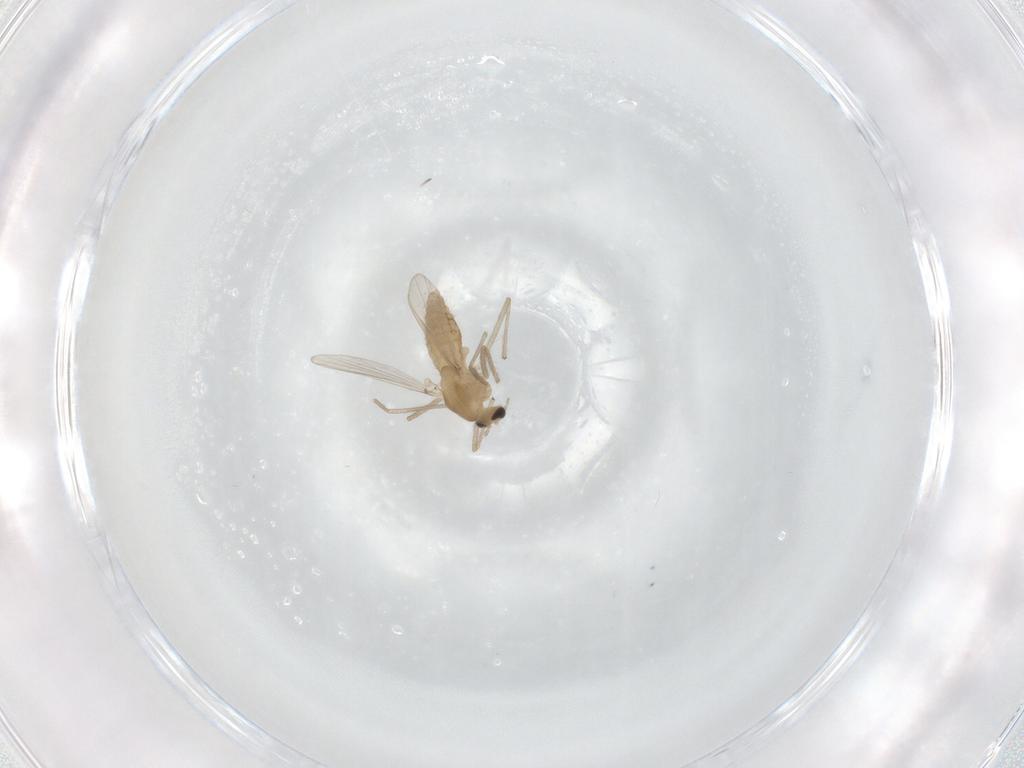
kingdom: Animalia
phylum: Arthropoda
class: Insecta
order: Diptera
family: Chironomidae
